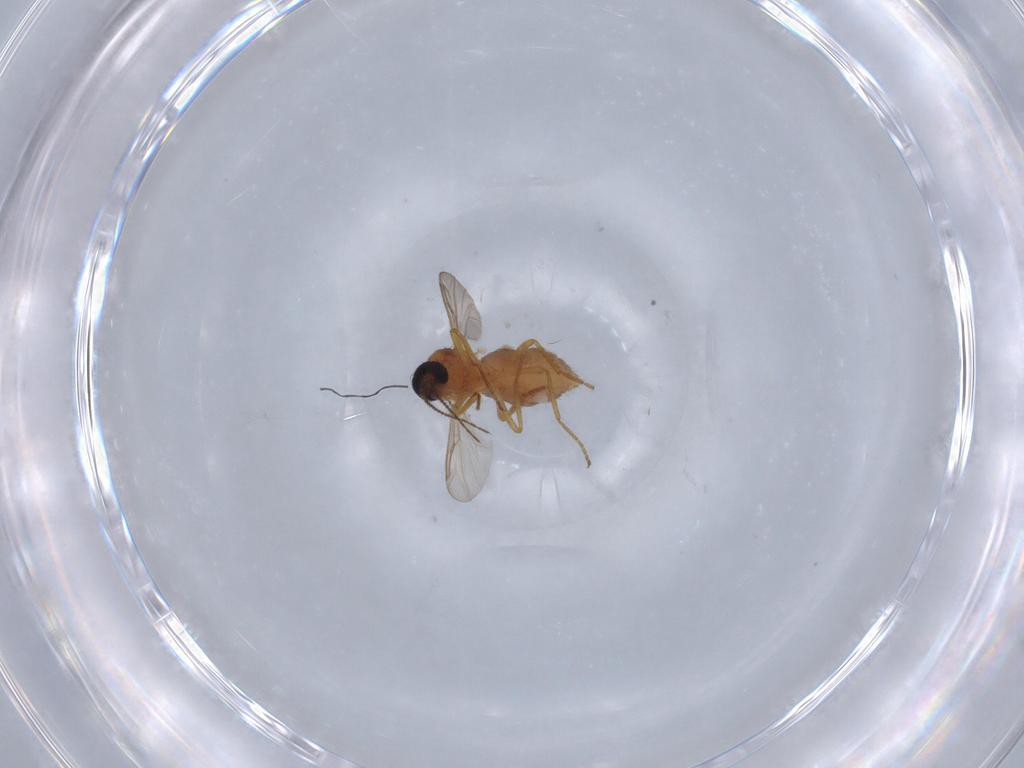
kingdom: Animalia
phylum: Arthropoda
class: Insecta
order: Diptera
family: Ceratopogonidae
